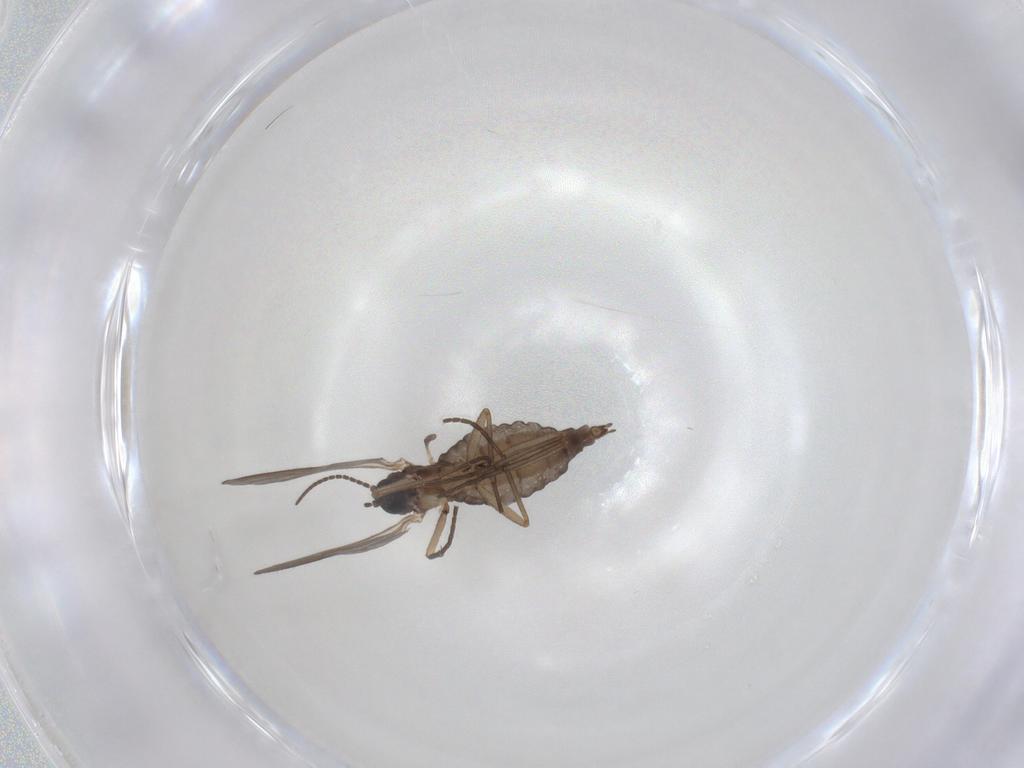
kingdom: Animalia
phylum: Arthropoda
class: Insecta
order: Diptera
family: Sciaridae
